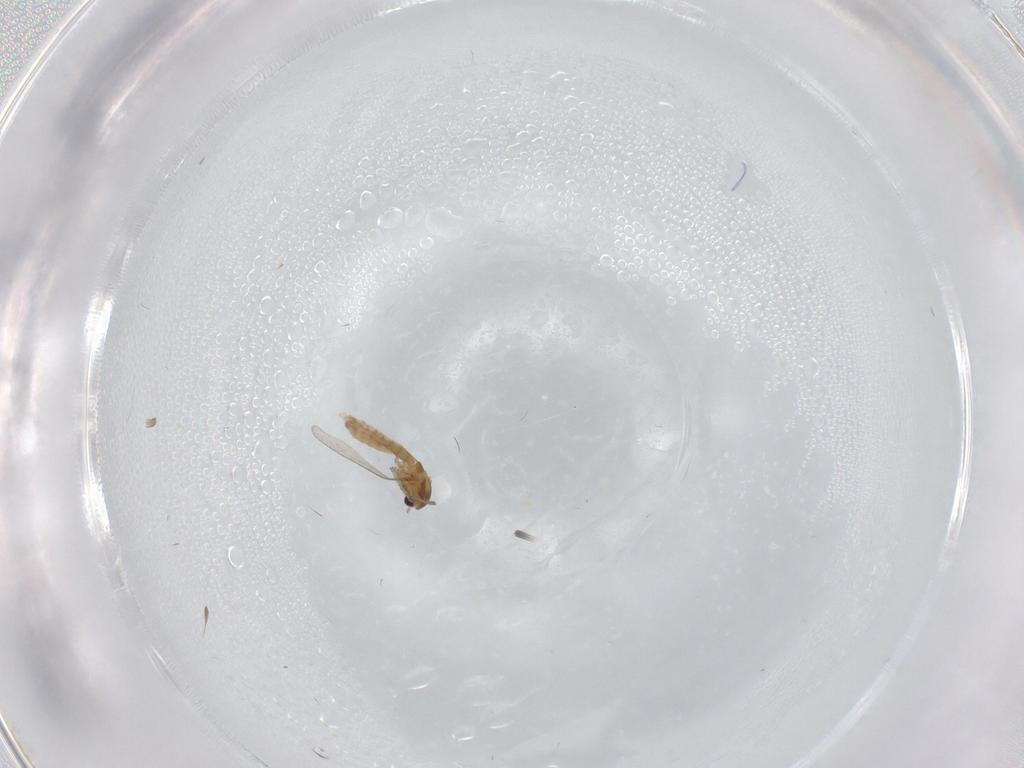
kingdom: Animalia
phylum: Arthropoda
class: Insecta
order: Diptera
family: Chironomidae
